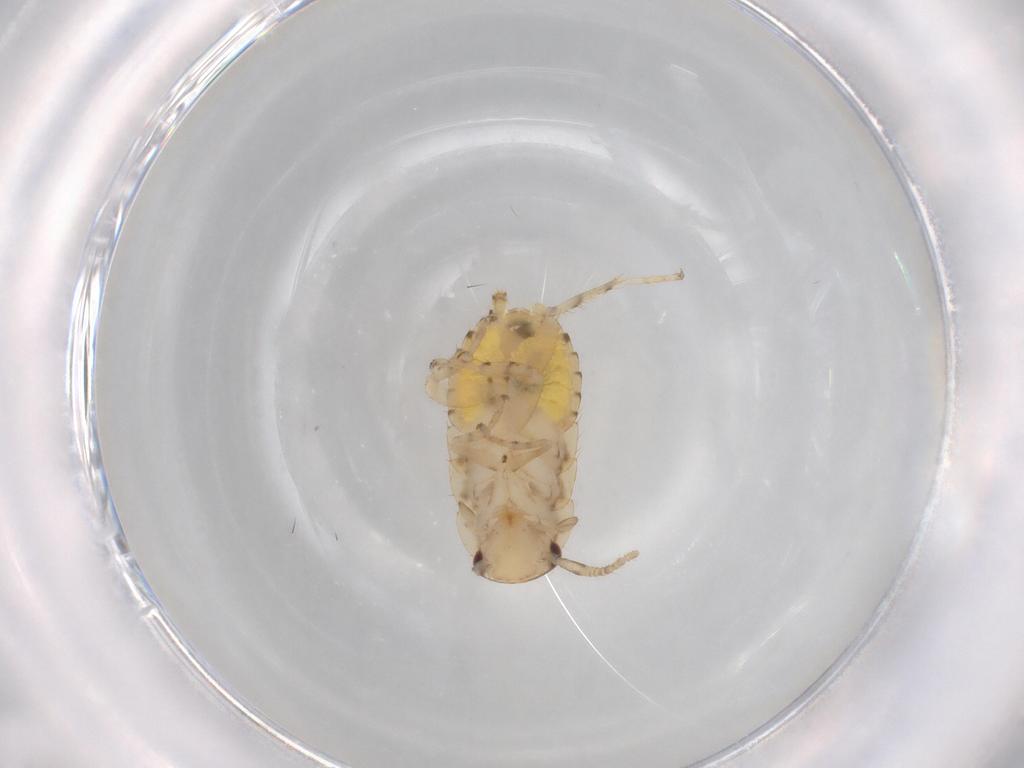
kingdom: Animalia
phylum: Arthropoda
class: Insecta
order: Blattodea
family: Ectobiidae
